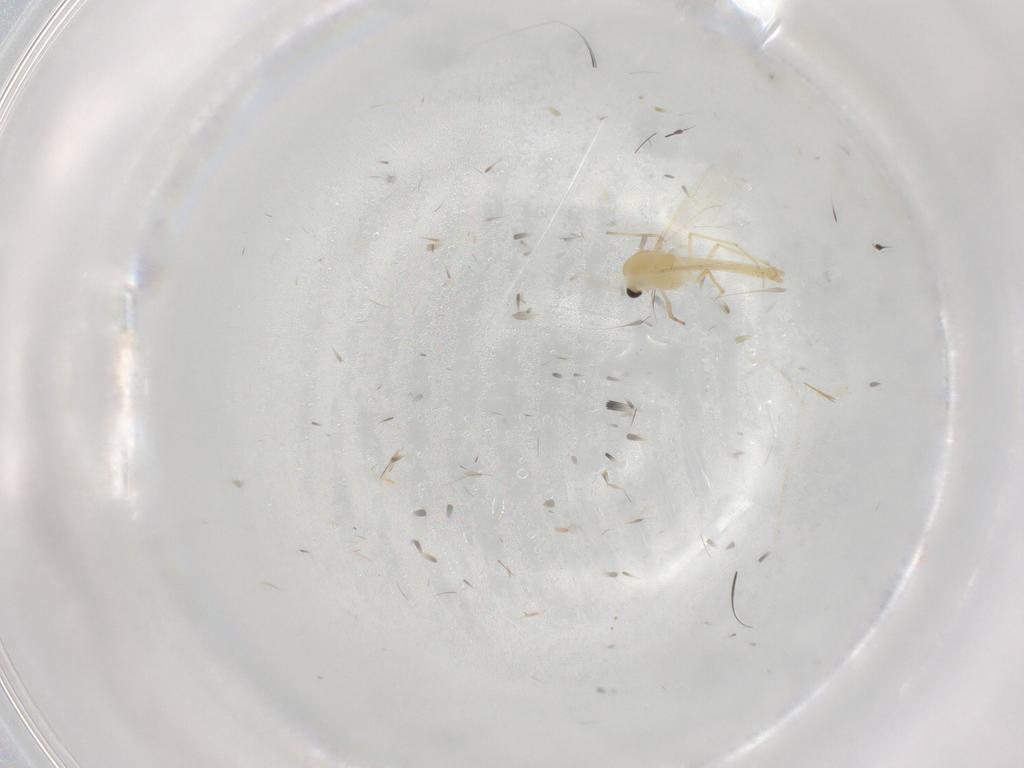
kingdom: Animalia
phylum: Arthropoda
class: Insecta
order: Diptera
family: Chironomidae
